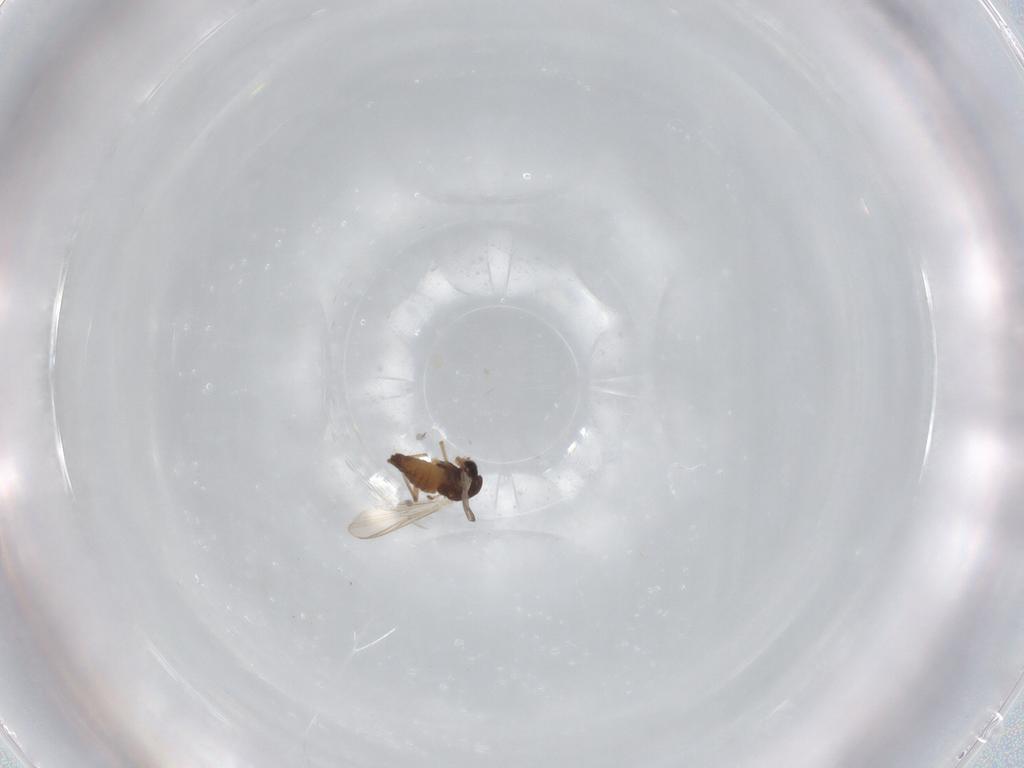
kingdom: Animalia
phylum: Arthropoda
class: Insecta
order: Diptera
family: Chironomidae
